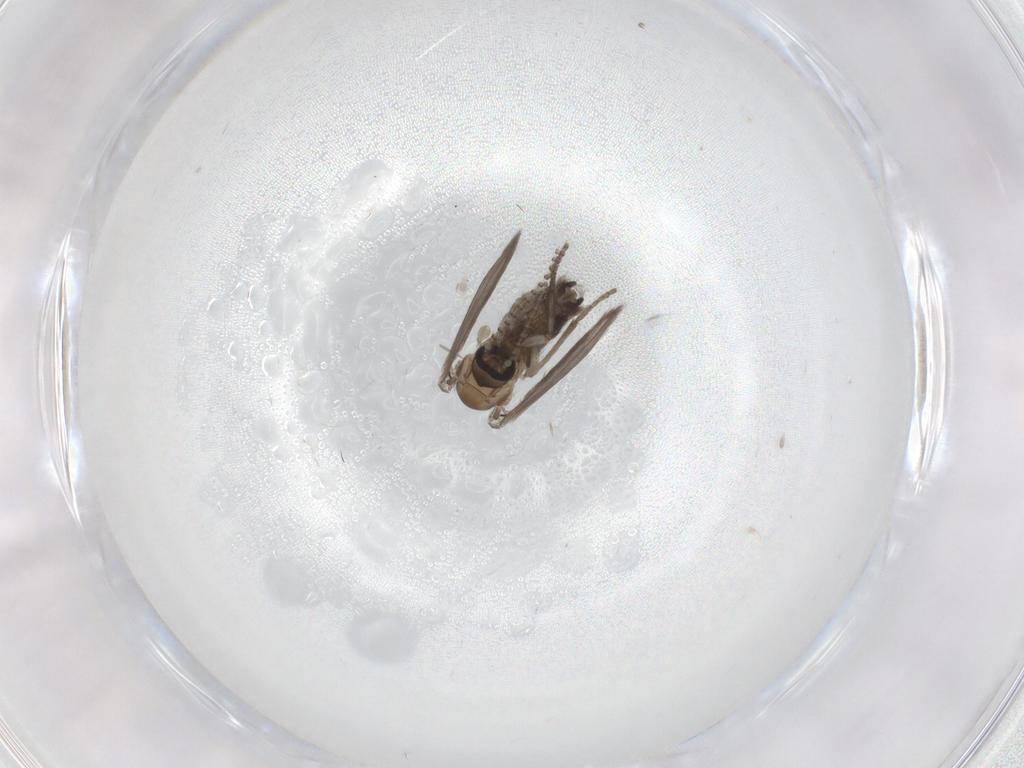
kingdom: Animalia
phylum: Arthropoda
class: Insecta
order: Diptera
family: Psychodidae
